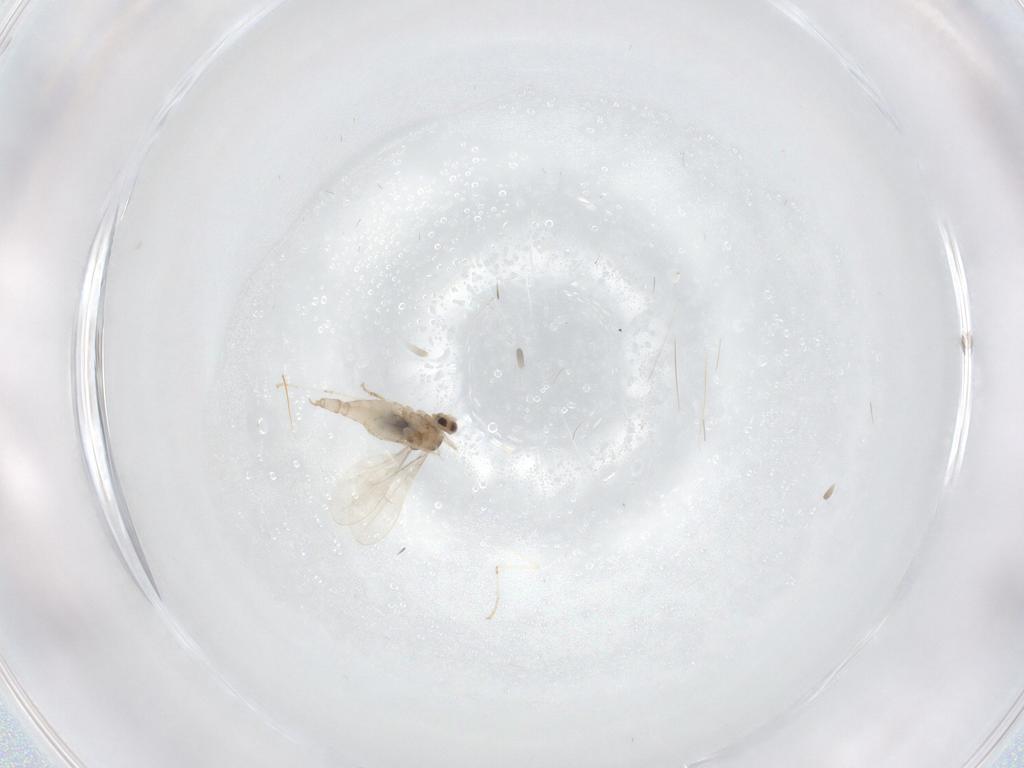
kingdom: Animalia
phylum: Arthropoda
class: Insecta
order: Diptera
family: Cecidomyiidae
